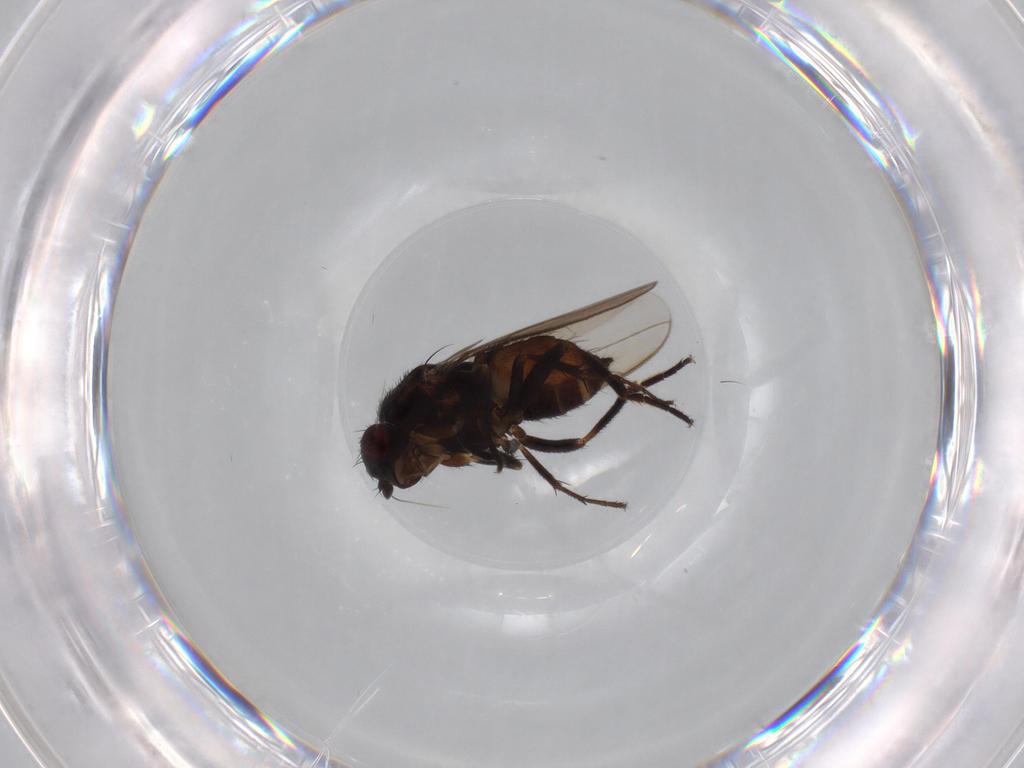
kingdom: Animalia
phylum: Arthropoda
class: Insecta
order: Diptera
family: Sphaeroceridae
